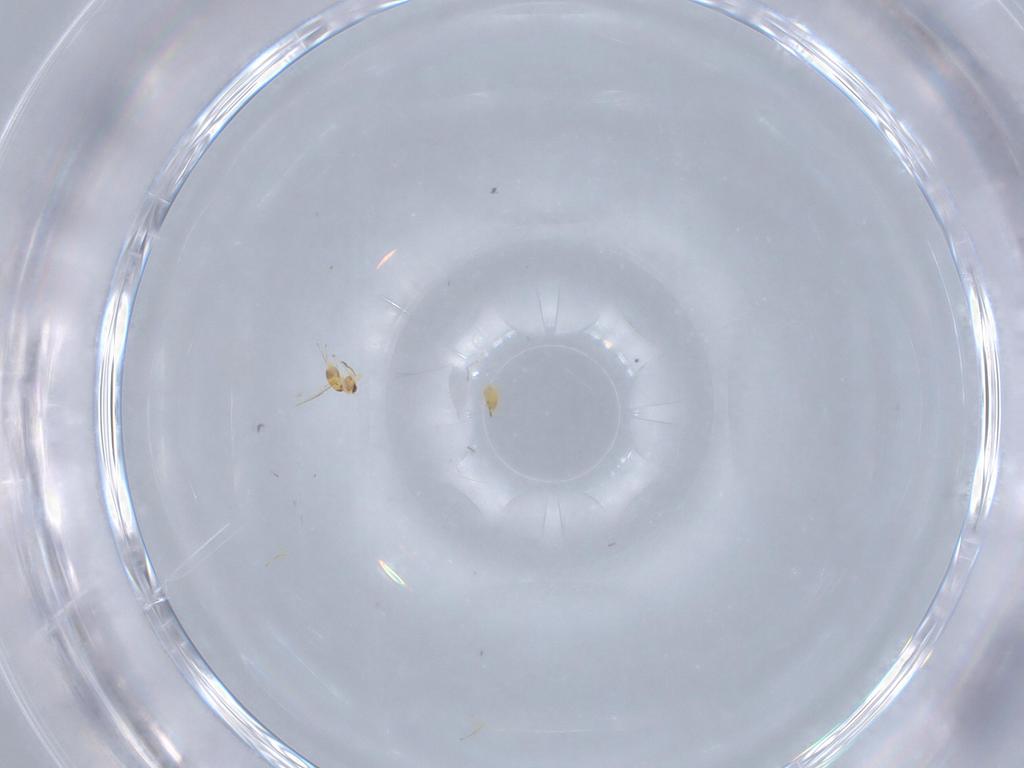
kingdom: Animalia
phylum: Arthropoda
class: Insecta
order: Hymenoptera
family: Mymaridae
